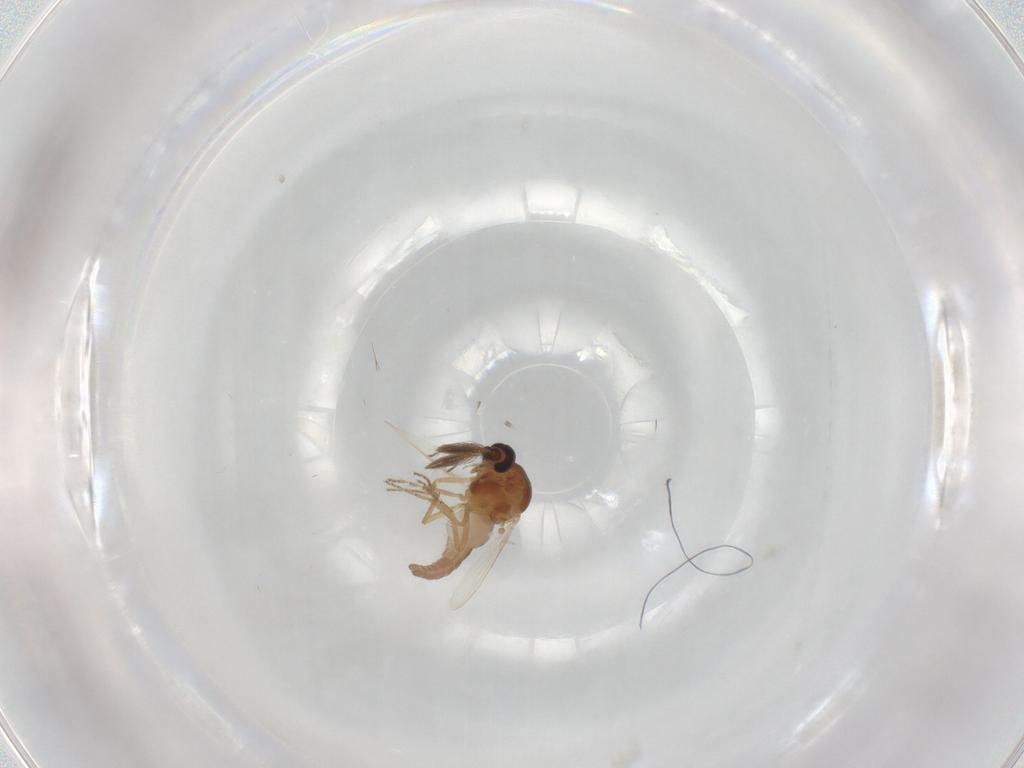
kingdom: Animalia
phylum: Arthropoda
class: Insecta
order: Diptera
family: Ceratopogonidae
